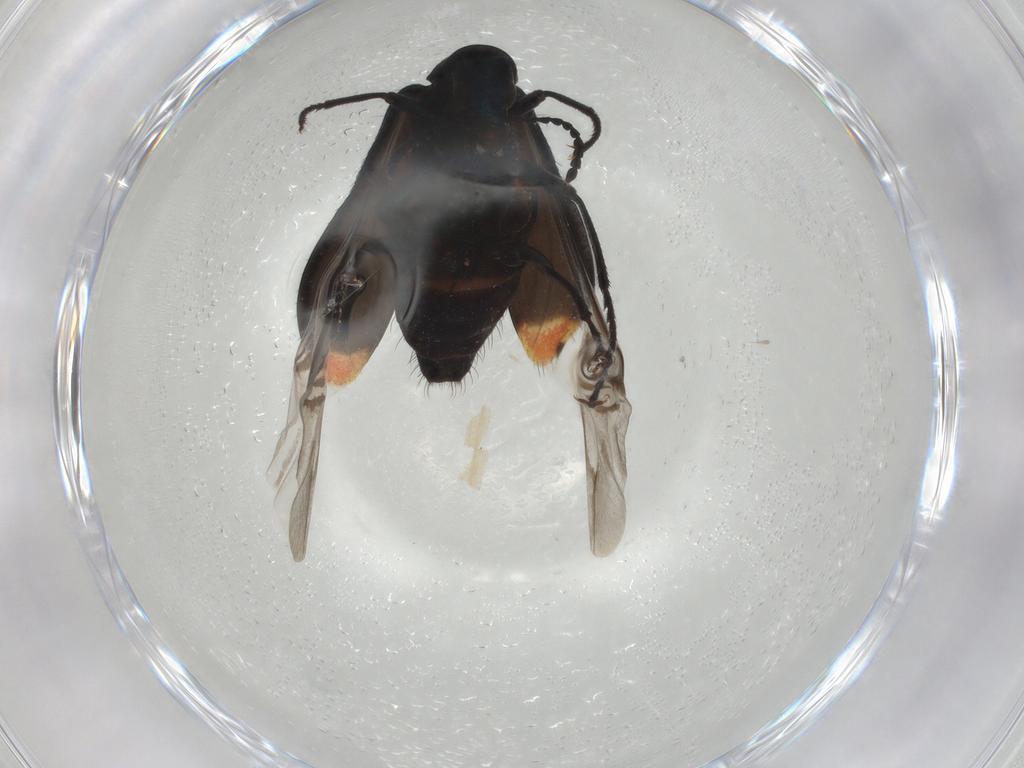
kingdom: Animalia
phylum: Arthropoda
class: Insecta
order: Coleoptera
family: Melyridae
